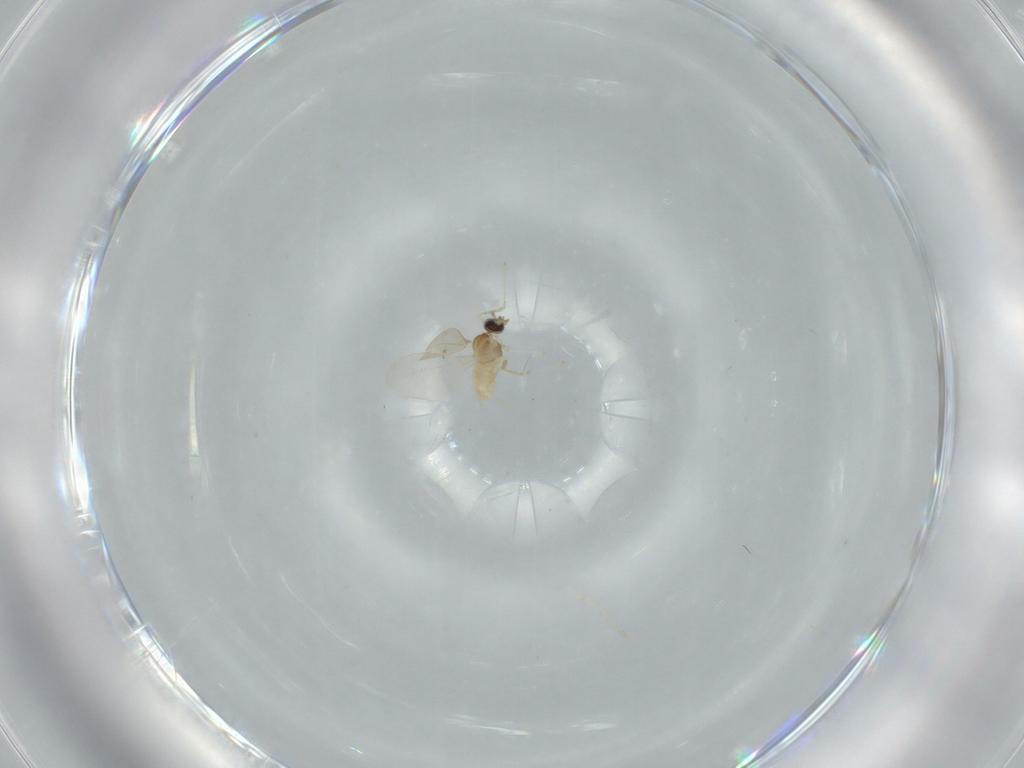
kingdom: Animalia
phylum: Arthropoda
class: Insecta
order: Diptera
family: Cecidomyiidae
